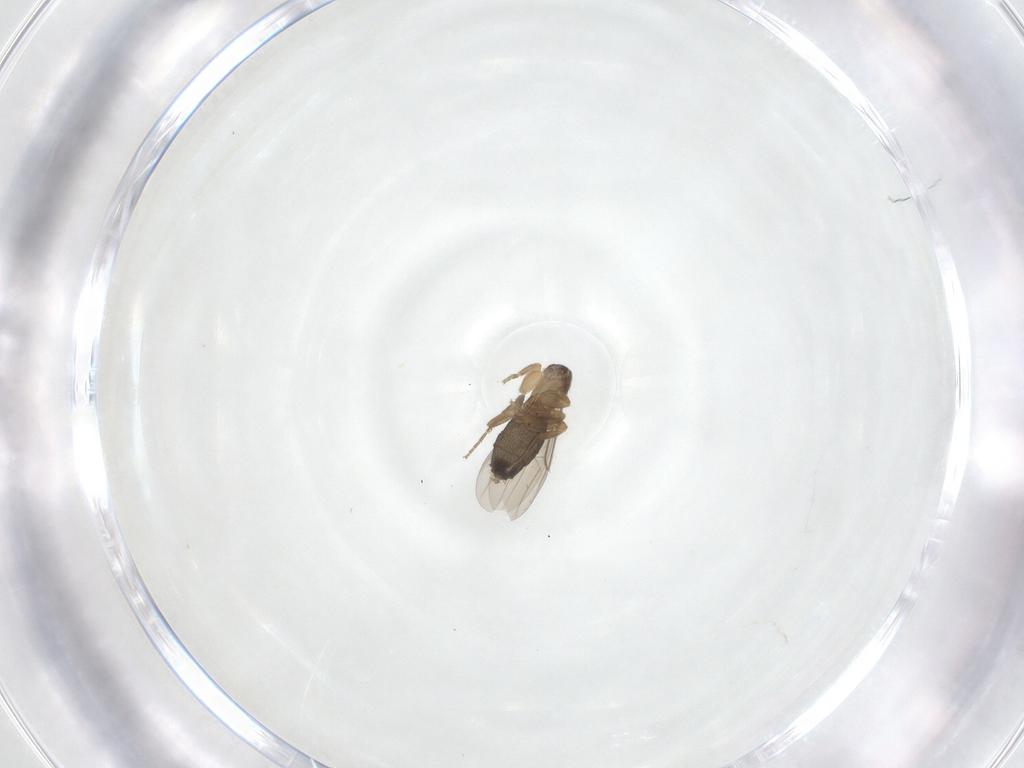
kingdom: Animalia
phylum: Arthropoda
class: Insecta
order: Diptera
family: Phoridae
